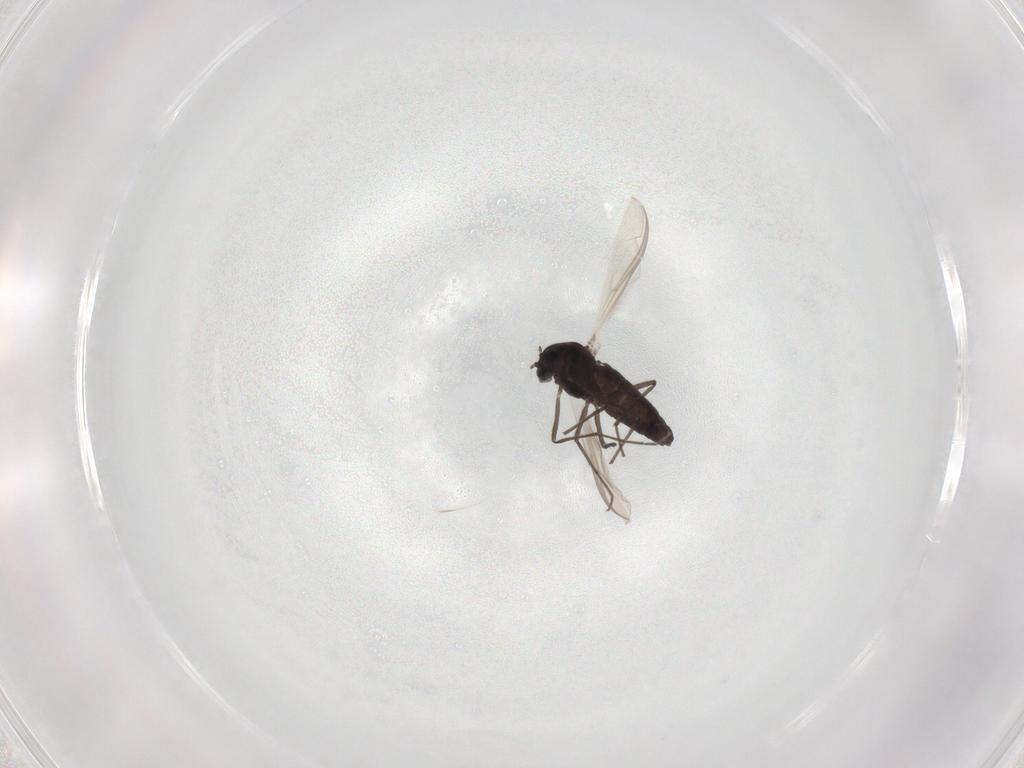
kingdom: Animalia
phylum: Arthropoda
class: Insecta
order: Diptera
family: Chironomidae
